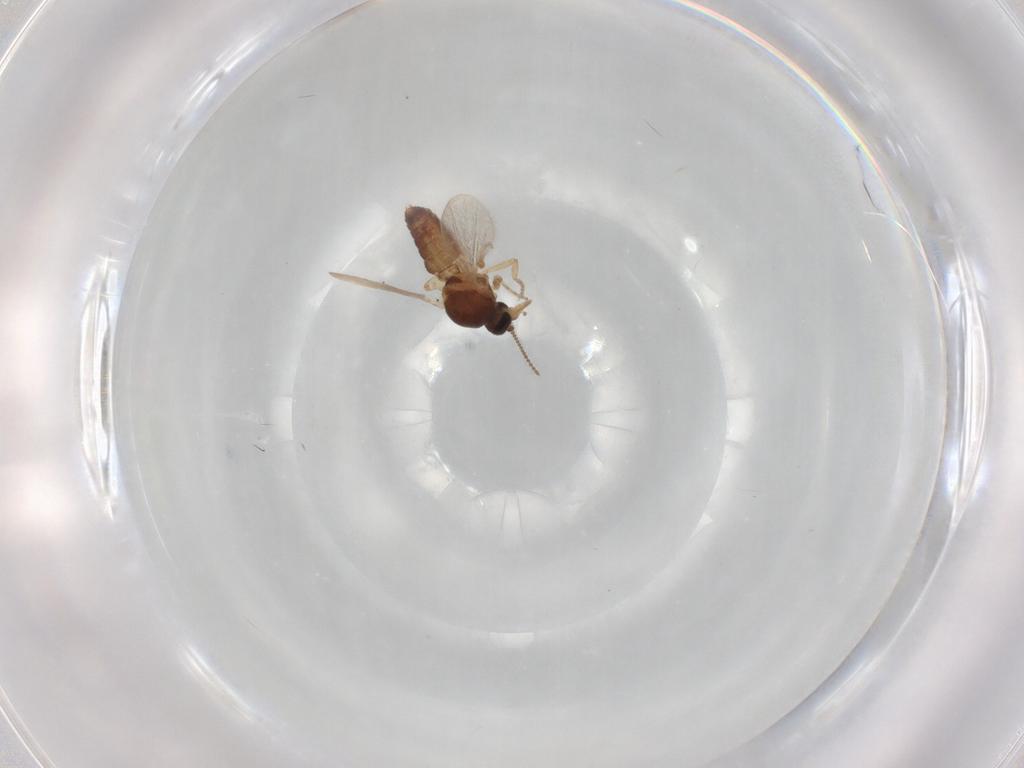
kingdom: Animalia
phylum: Arthropoda
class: Insecta
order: Diptera
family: Ceratopogonidae
